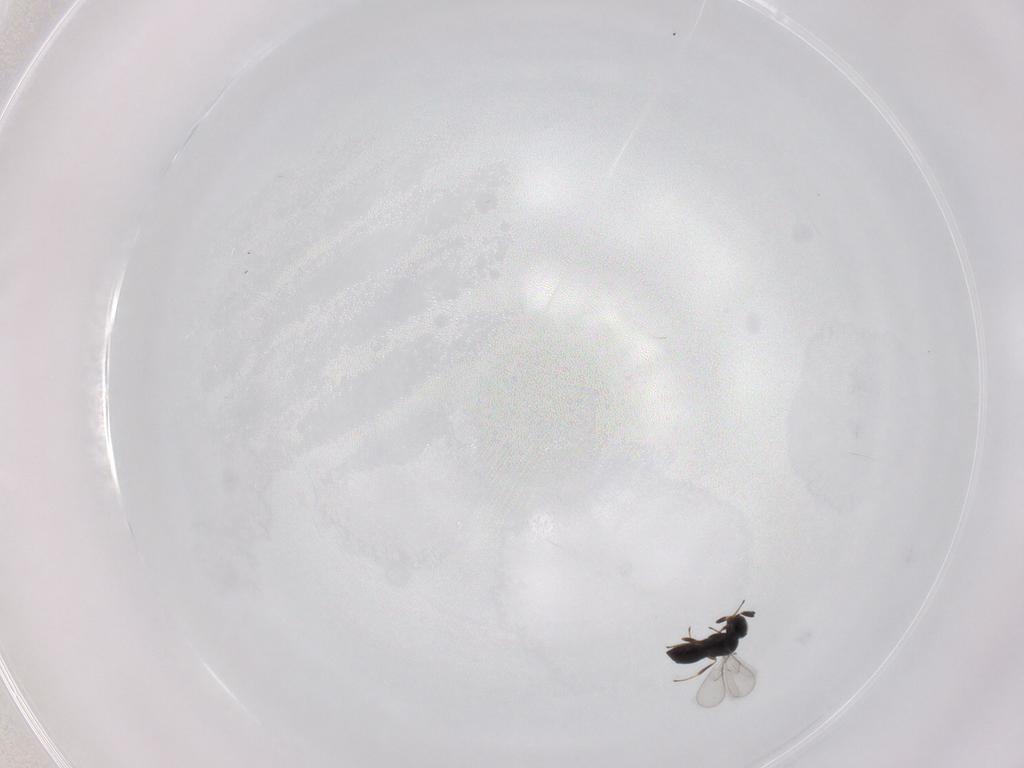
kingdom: Animalia
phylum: Arthropoda
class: Insecta
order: Hymenoptera
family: Scelionidae
